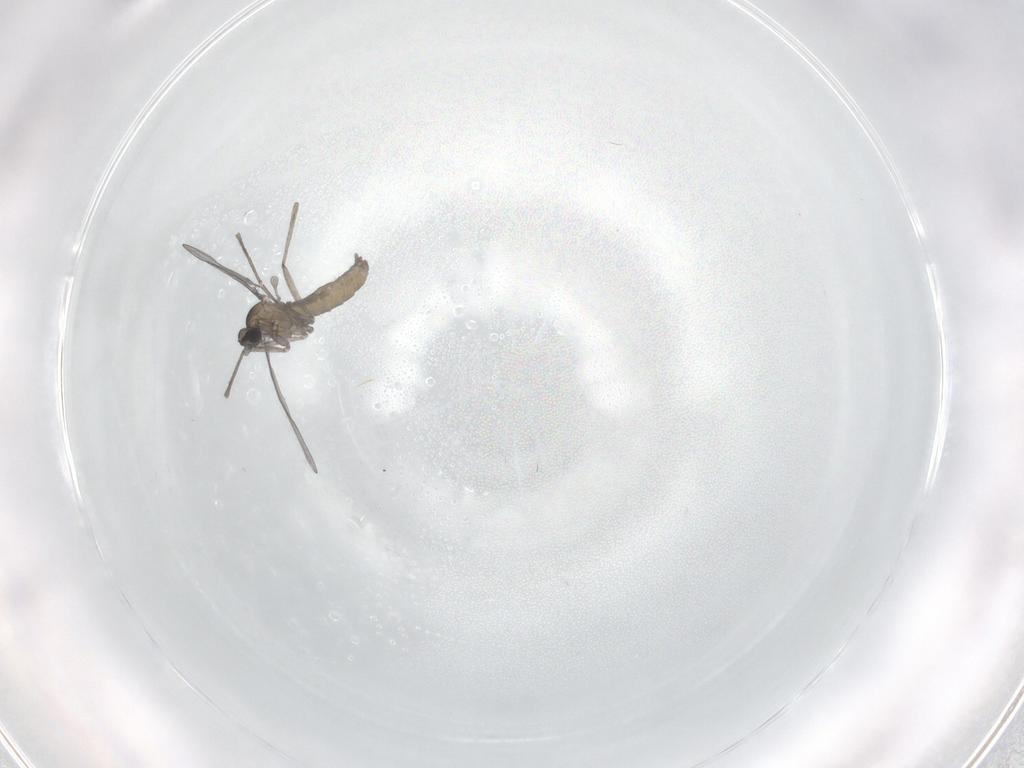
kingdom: Animalia
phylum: Arthropoda
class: Insecta
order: Diptera
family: Cecidomyiidae
